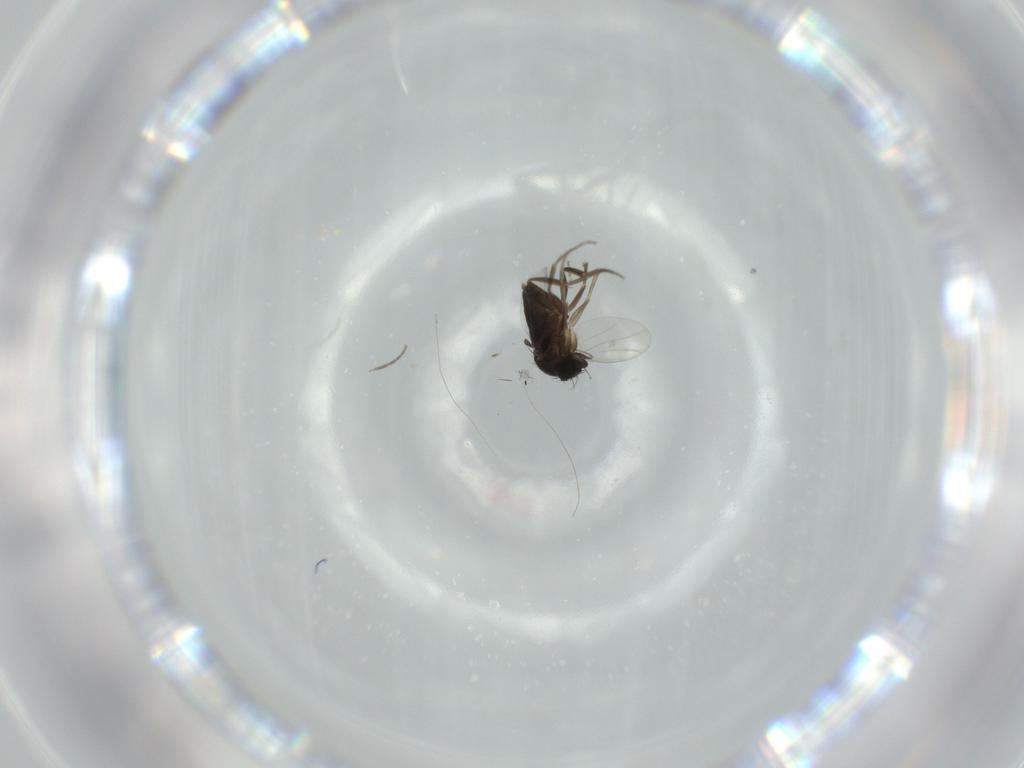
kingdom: Animalia
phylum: Arthropoda
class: Insecta
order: Diptera
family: Phoridae
